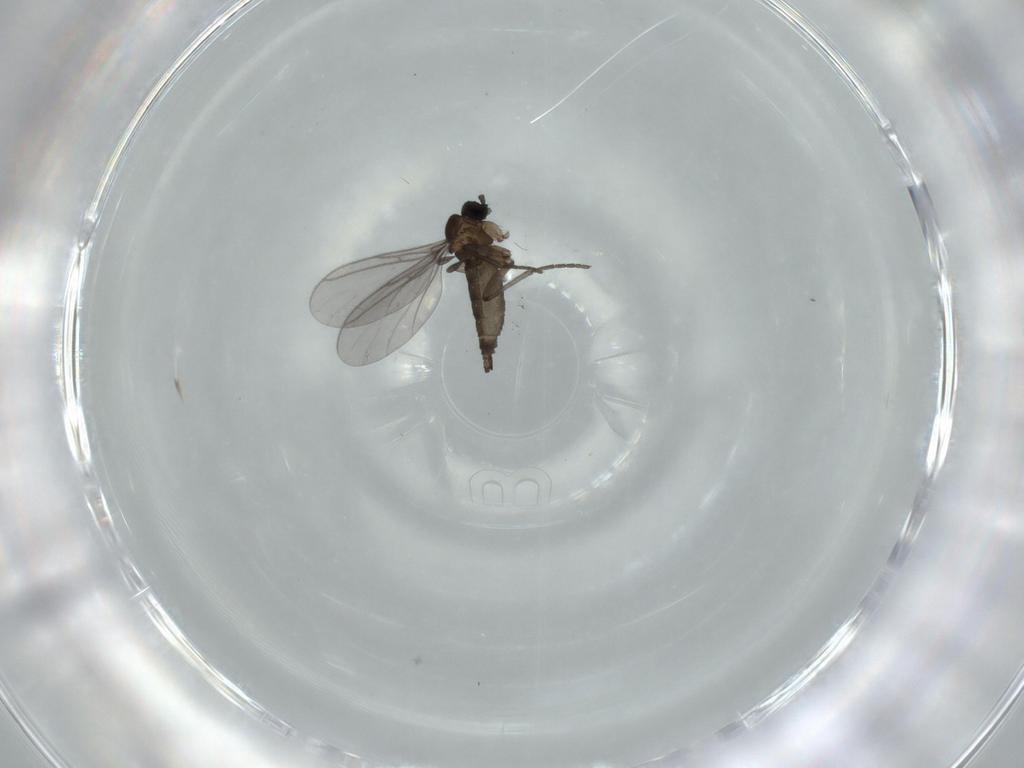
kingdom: Animalia
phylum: Arthropoda
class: Insecta
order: Diptera
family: Cecidomyiidae
